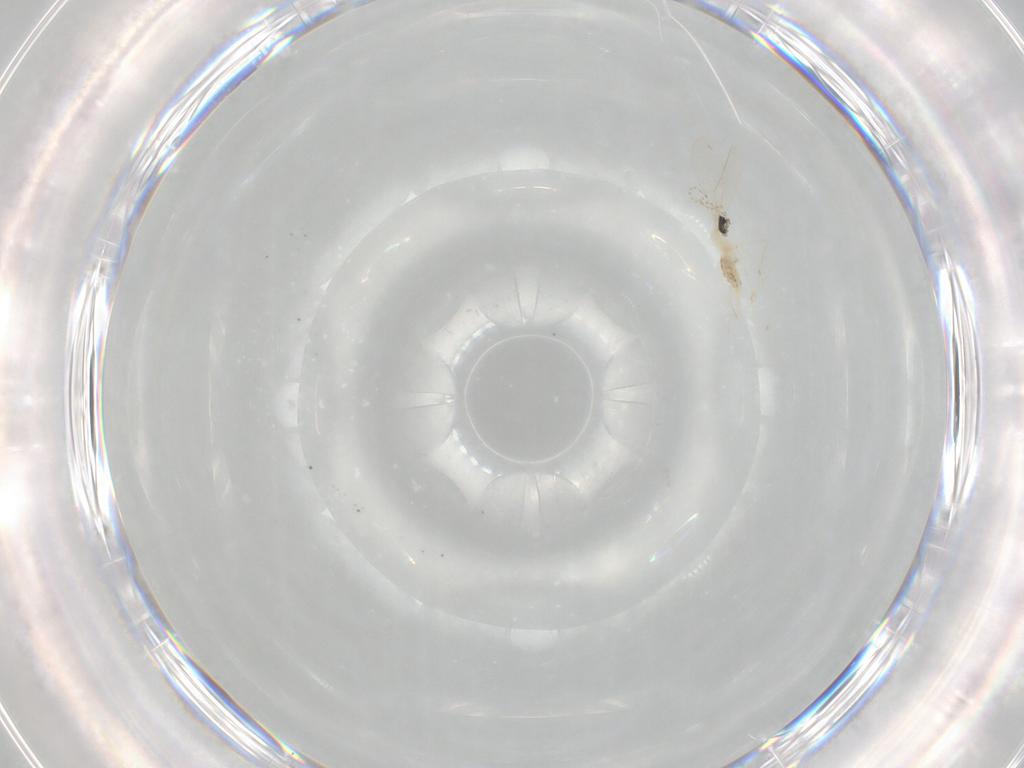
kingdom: Animalia
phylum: Arthropoda
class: Insecta
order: Diptera
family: Cecidomyiidae
